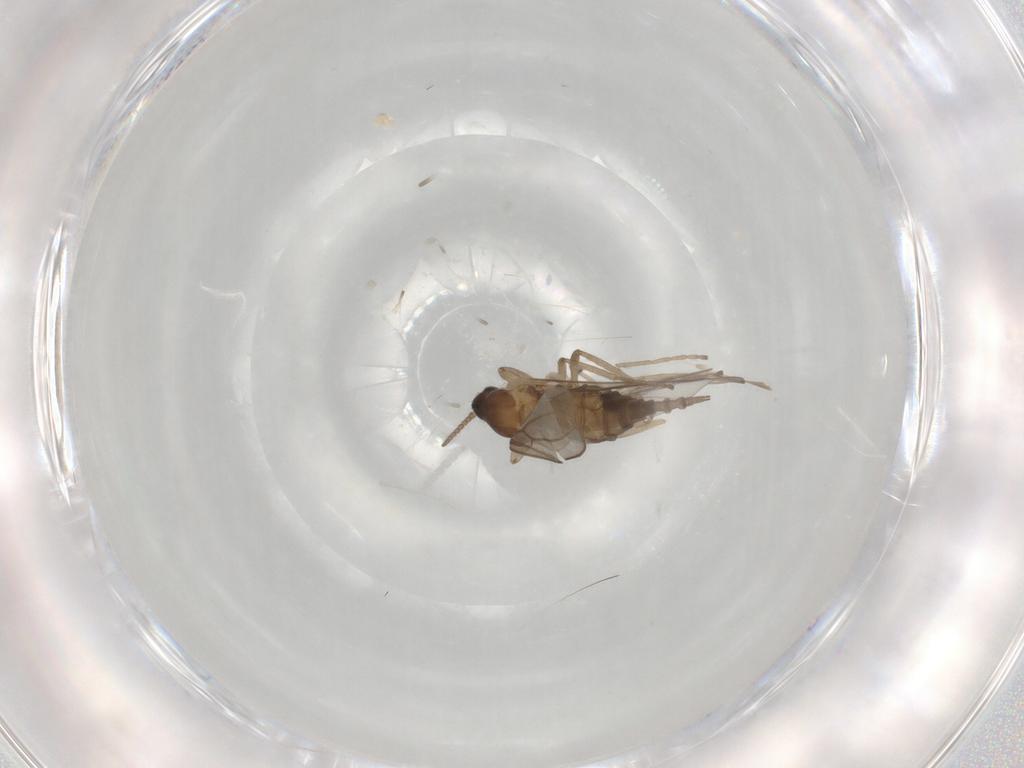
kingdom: Animalia
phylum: Arthropoda
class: Insecta
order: Diptera
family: Chironomidae
